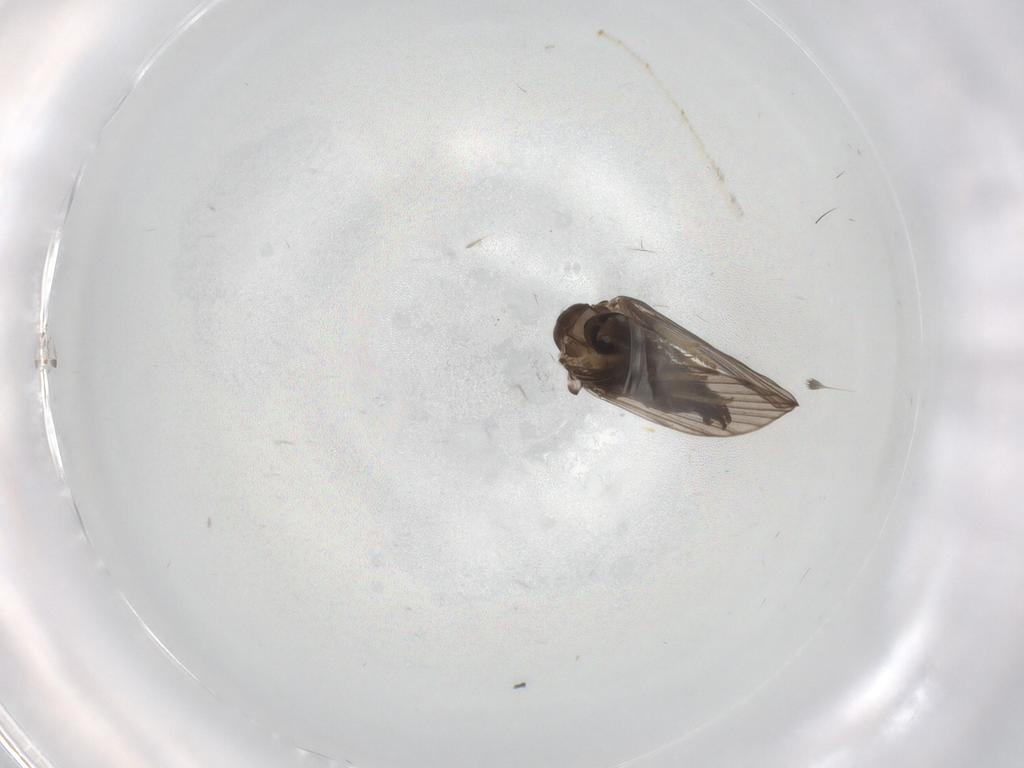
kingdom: Animalia
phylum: Arthropoda
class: Insecta
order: Diptera
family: Psychodidae
